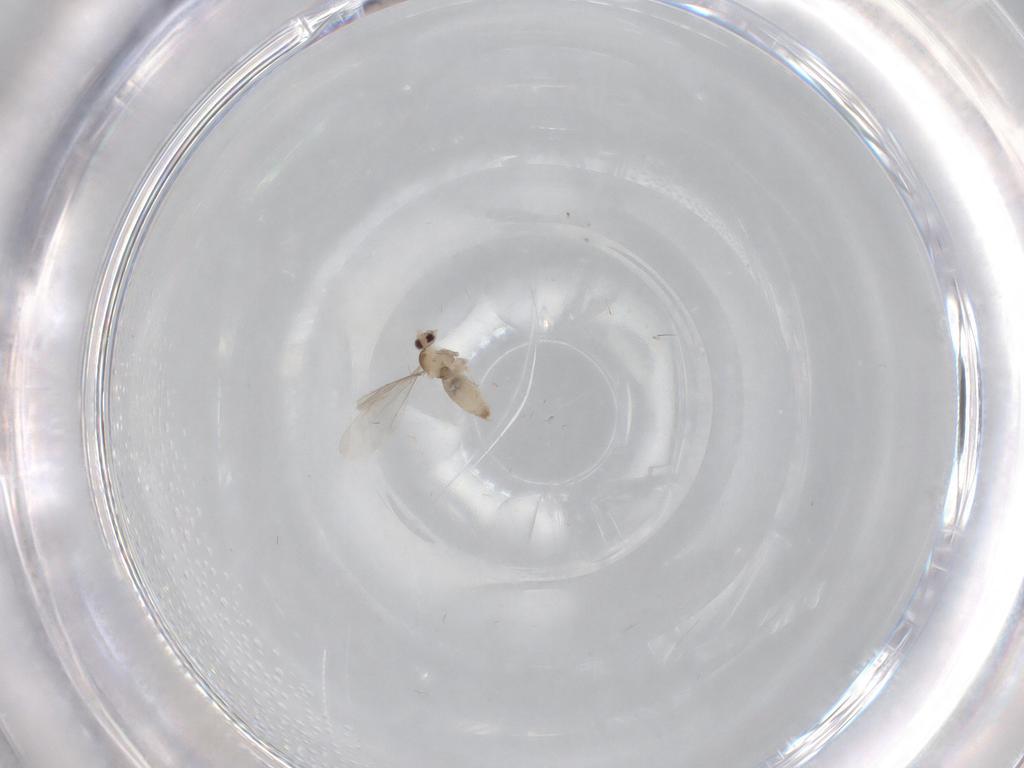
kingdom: Animalia
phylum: Arthropoda
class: Insecta
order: Diptera
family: Cecidomyiidae
